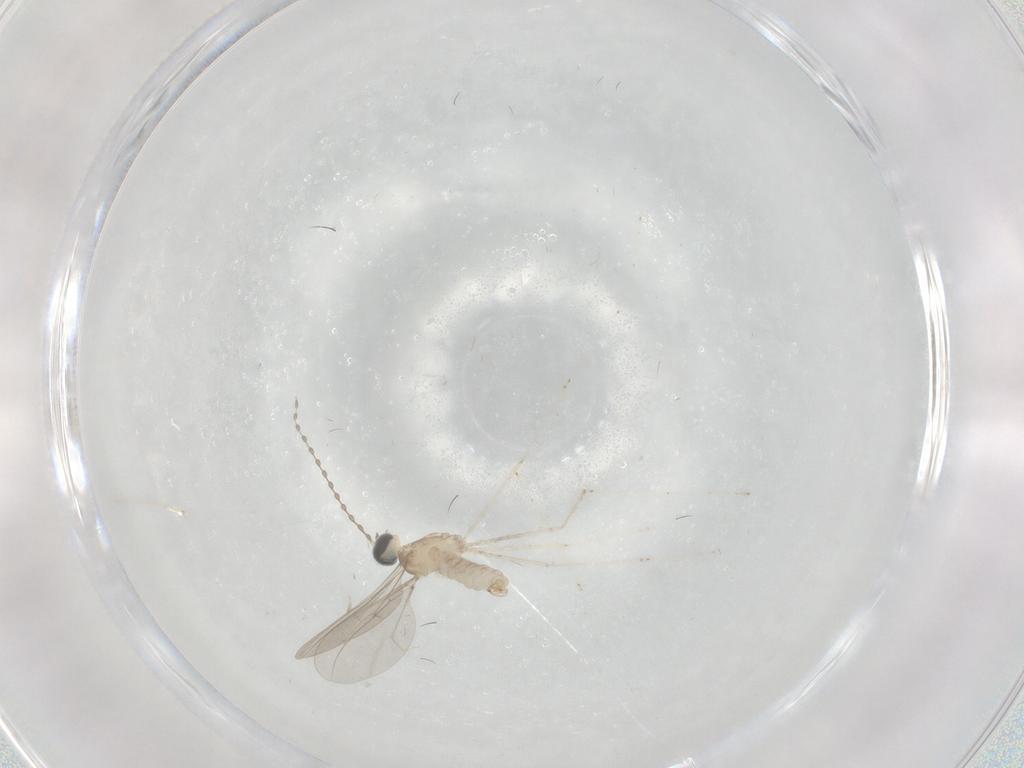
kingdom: Animalia
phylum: Arthropoda
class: Insecta
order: Diptera
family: Cecidomyiidae
